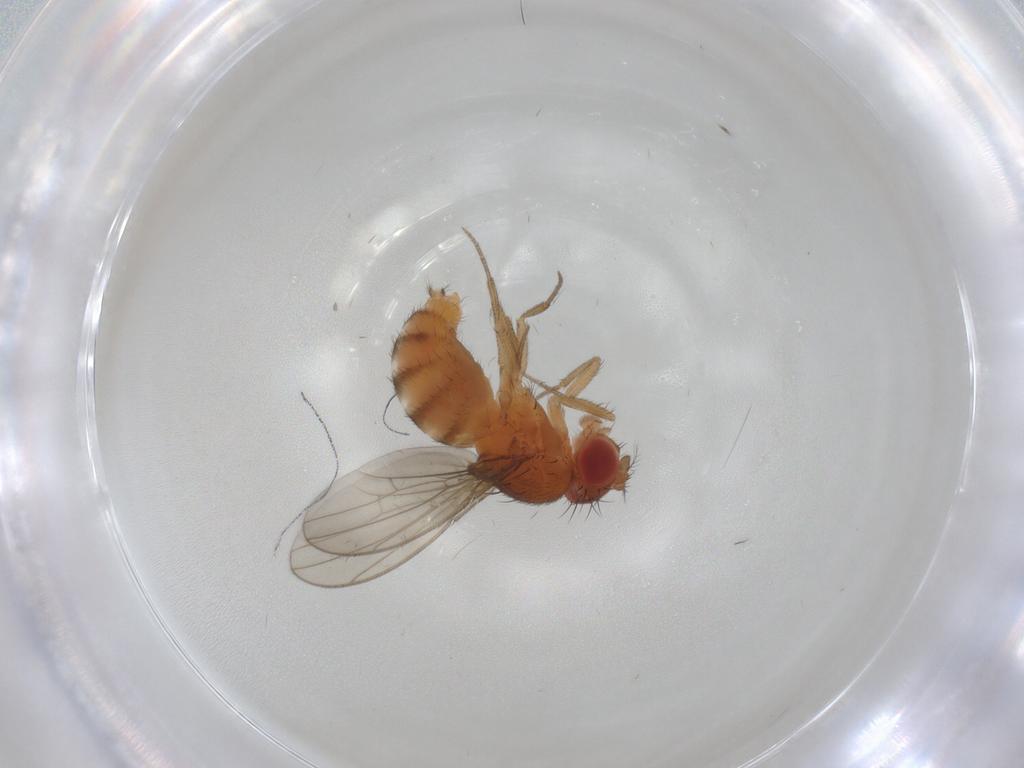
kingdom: Animalia
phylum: Arthropoda
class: Insecta
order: Diptera
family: Drosophilidae
